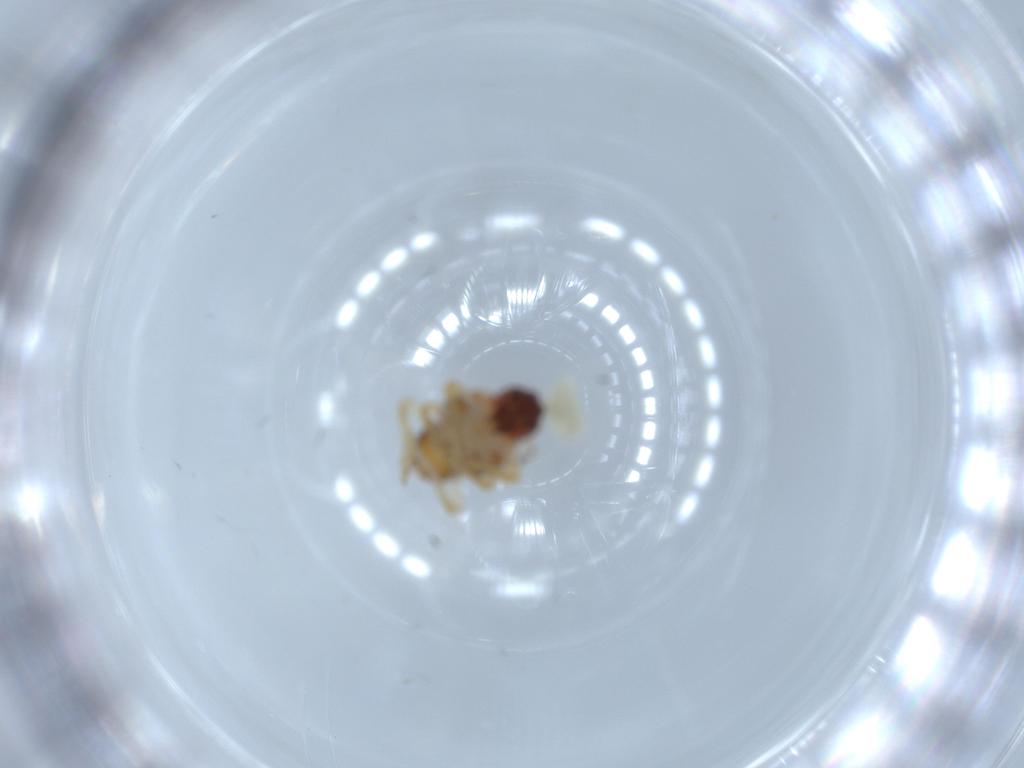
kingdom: Animalia
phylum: Arthropoda
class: Insecta
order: Hemiptera
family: Issidae
